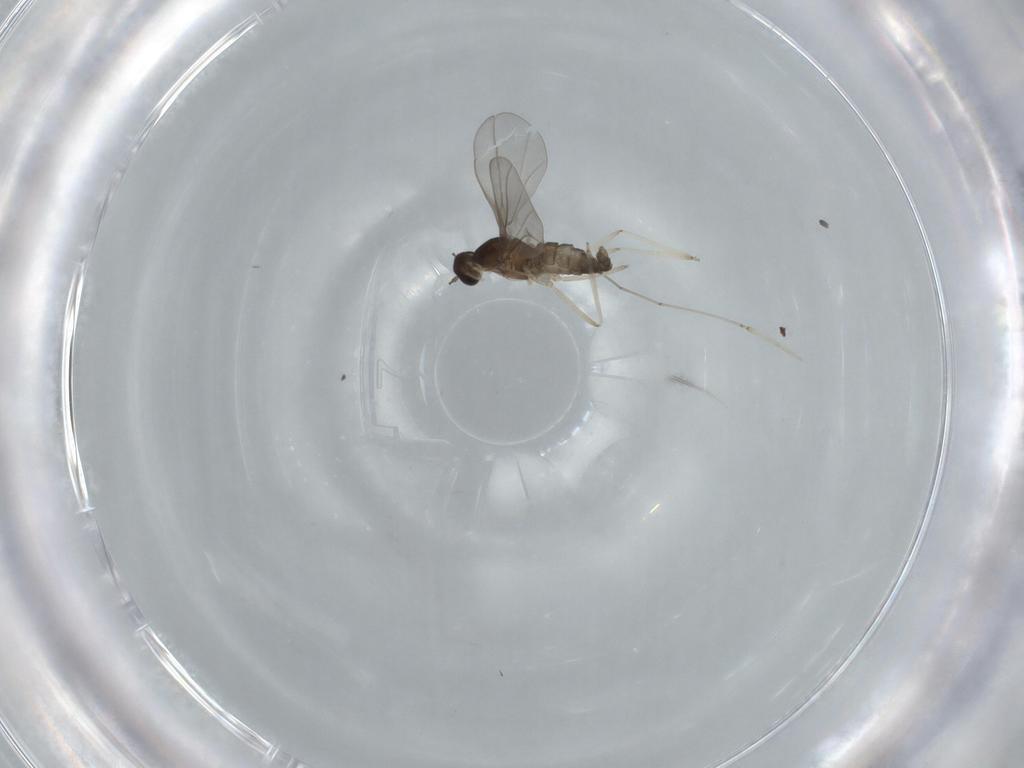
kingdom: Animalia
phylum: Arthropoda
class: Insecta
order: Diptera
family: Cecidomyiidae
